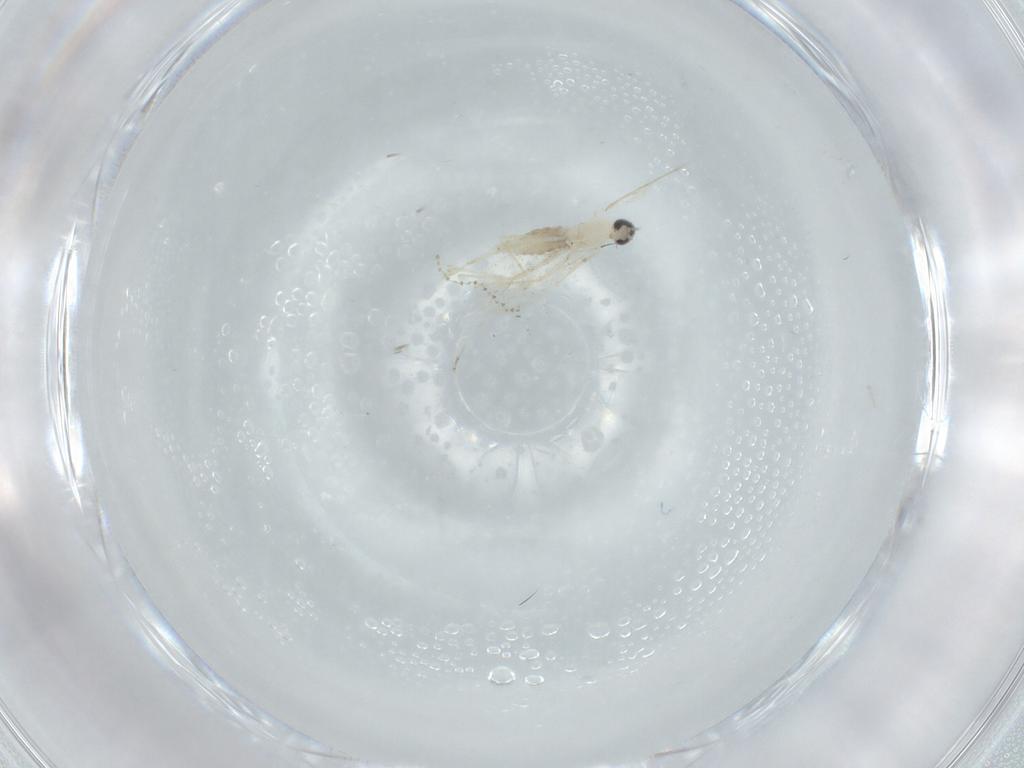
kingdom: Animalia
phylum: Arthropoda
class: Insecta
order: Diptera
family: Cecidomyiidae
